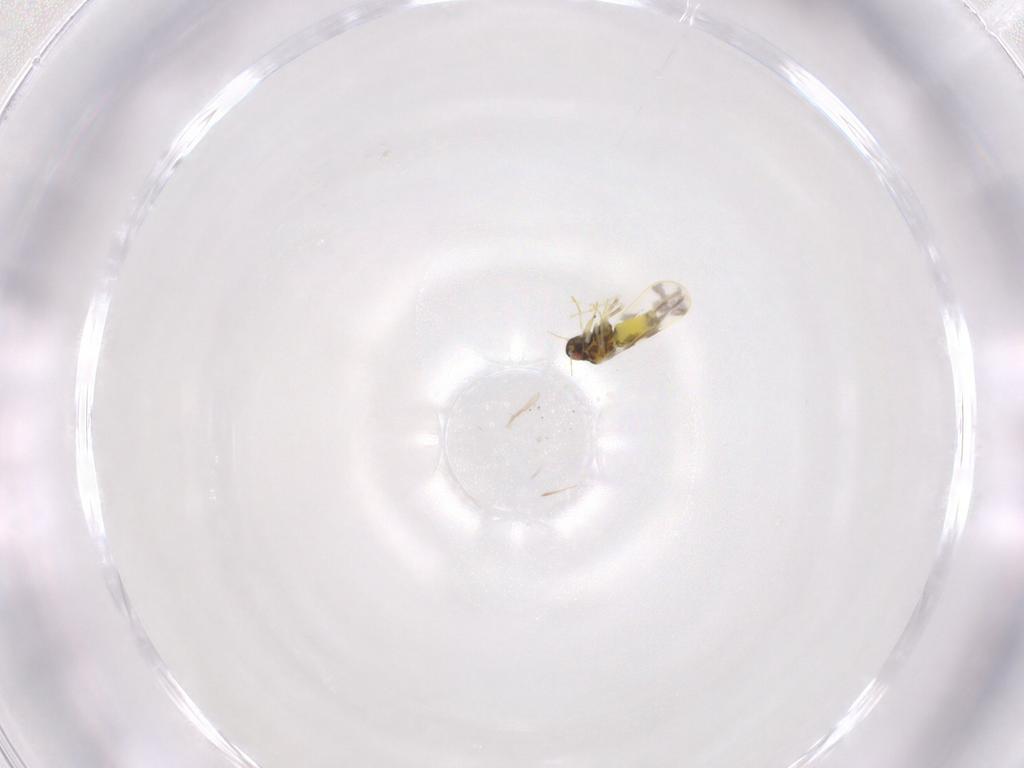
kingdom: Animalia
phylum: Arthropoda
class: Insecta
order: Hemiptera
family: Aleyrodidae
